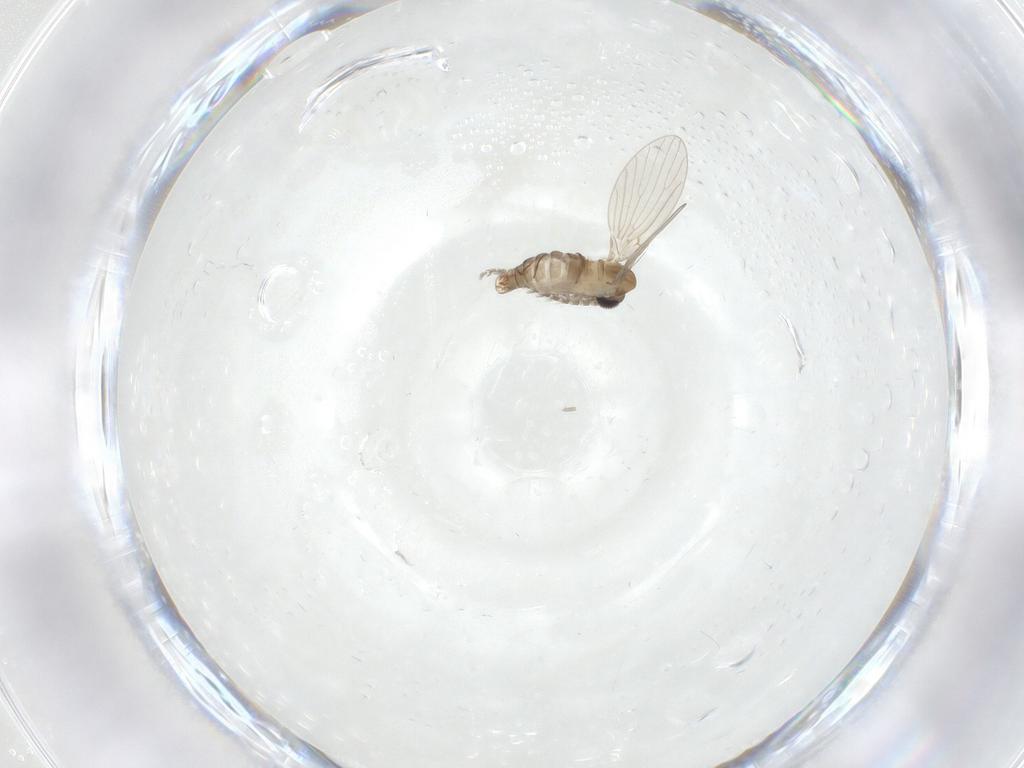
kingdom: Animalia
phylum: Arthropoda
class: Insecta
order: Diptera
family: Psychodidae
